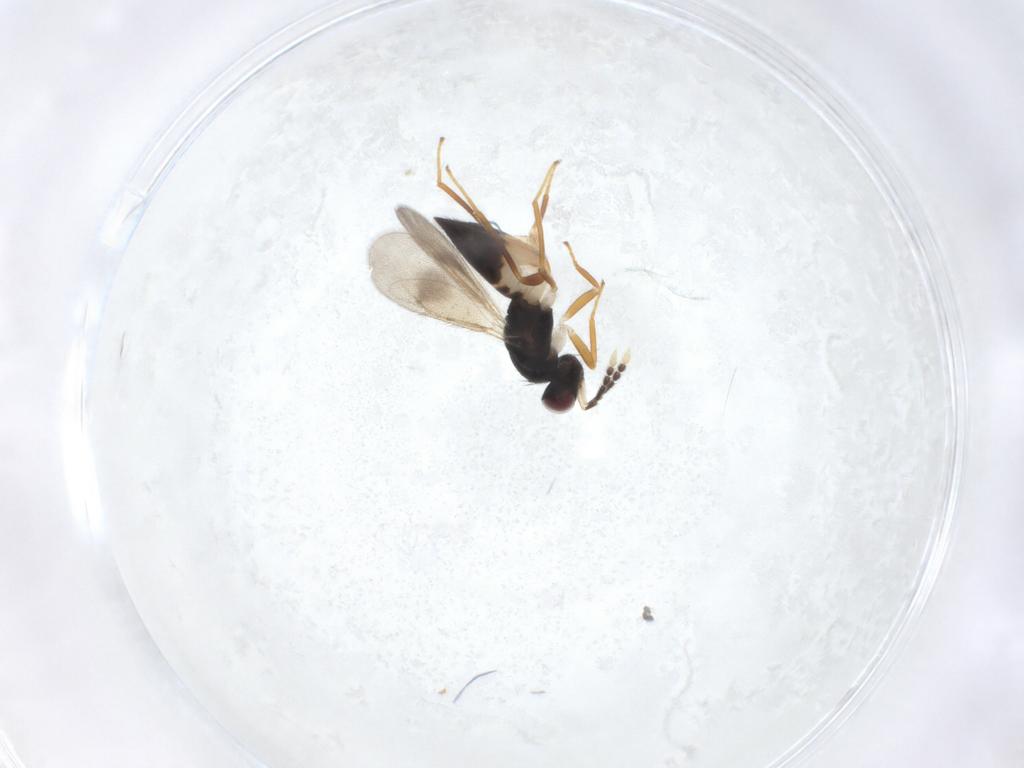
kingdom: Animalia
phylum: Arthropoda
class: Insecta
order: Hymenoptera
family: Eulophidae
